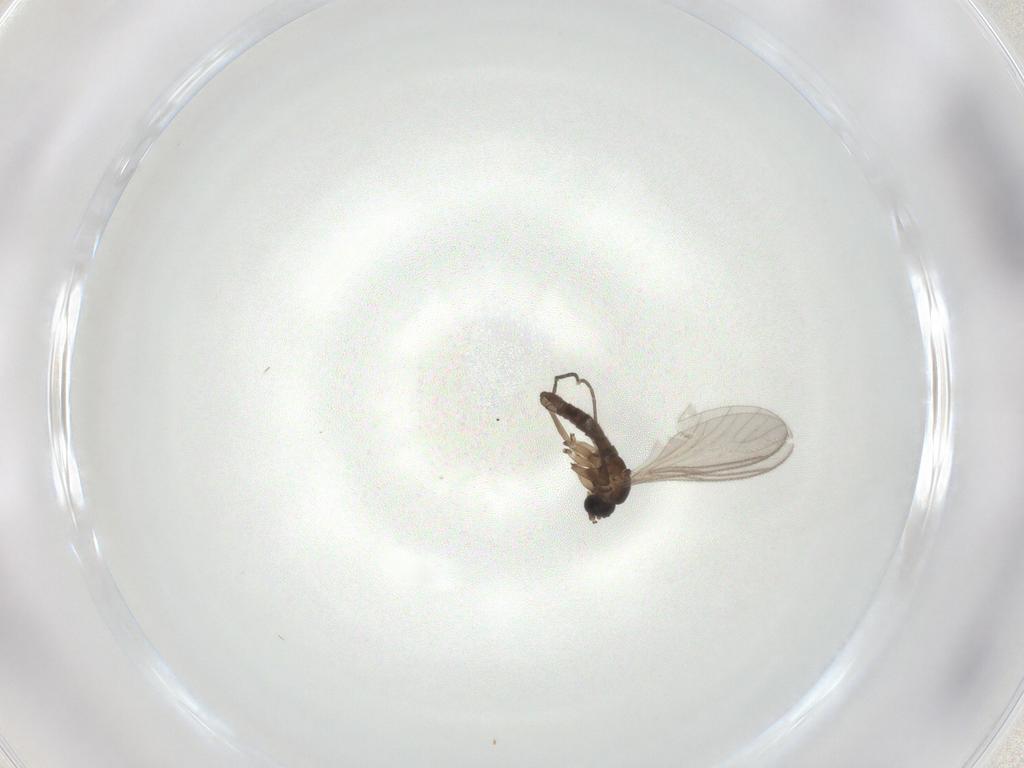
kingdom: Animalia
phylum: Arthropoda
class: Insecta
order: Diptera
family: Sciaridae
